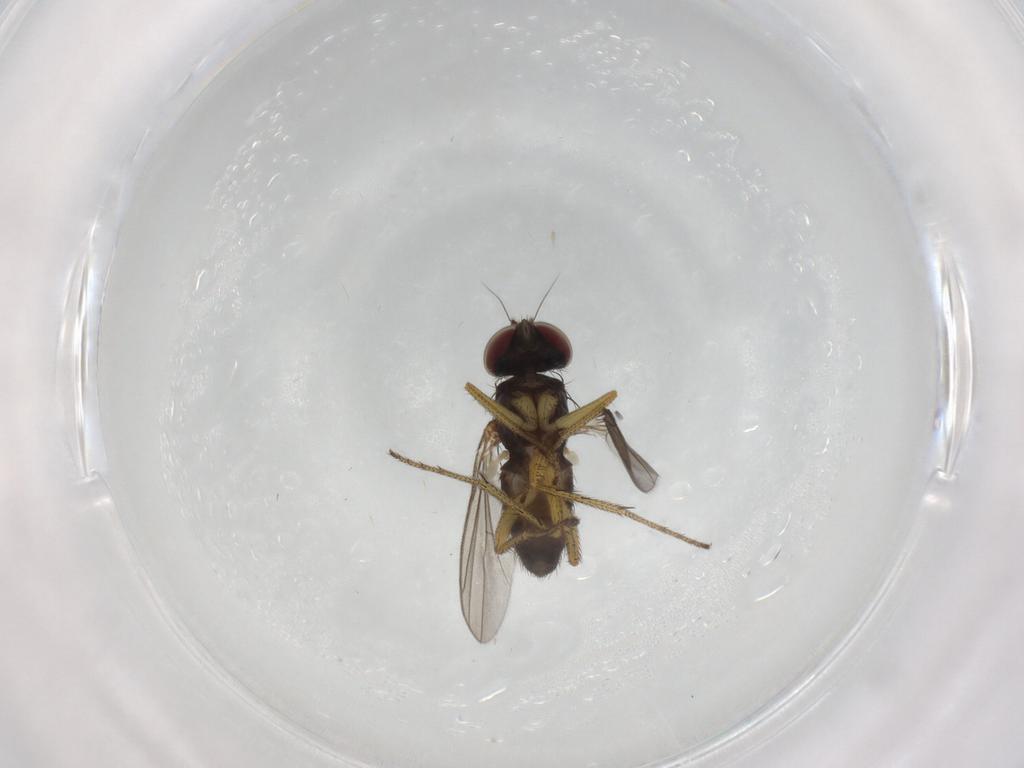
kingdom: Animalia
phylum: Arthropoda
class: Insecta
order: Diptera
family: Dolichopodidae
